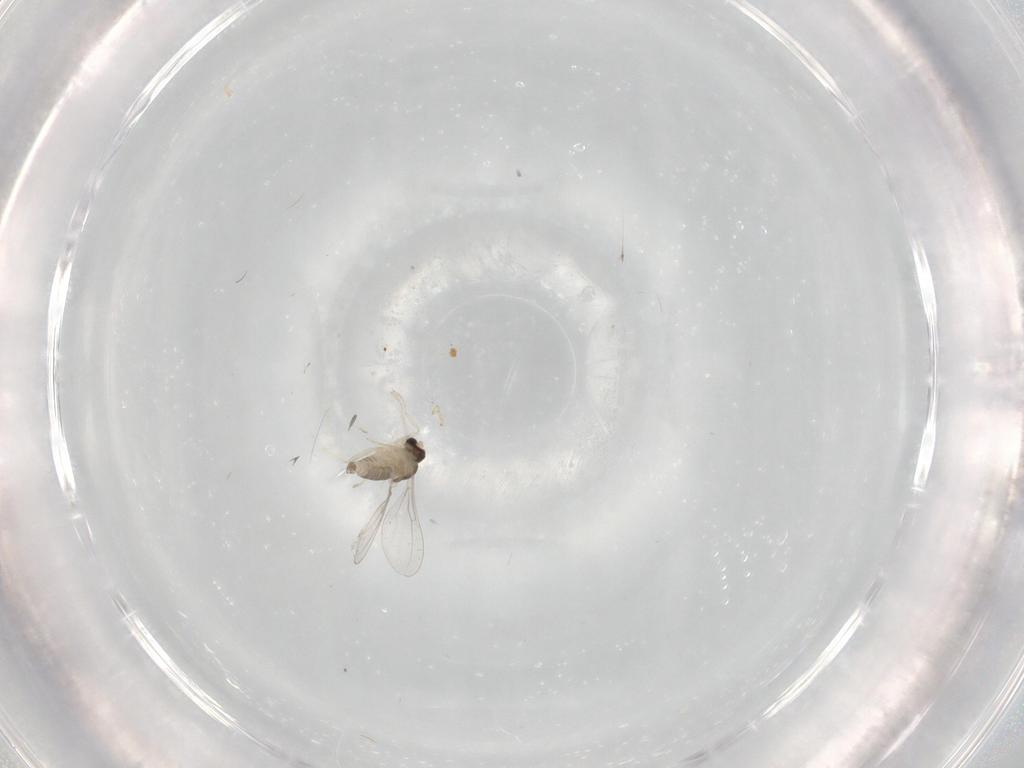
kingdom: Animalia
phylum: Arthropoda
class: Insecta
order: Diptera
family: Cecidomyiidae
